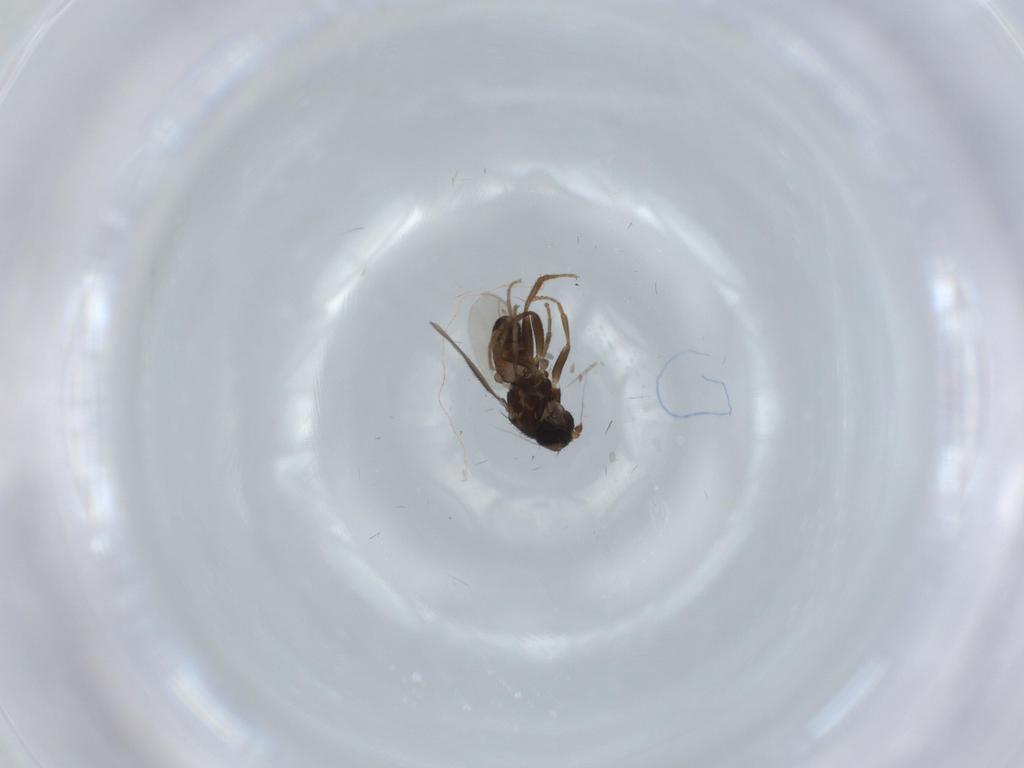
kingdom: Animalia
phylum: Arthropoda
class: Insecta
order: Diptera
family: Sphaeroceridae
